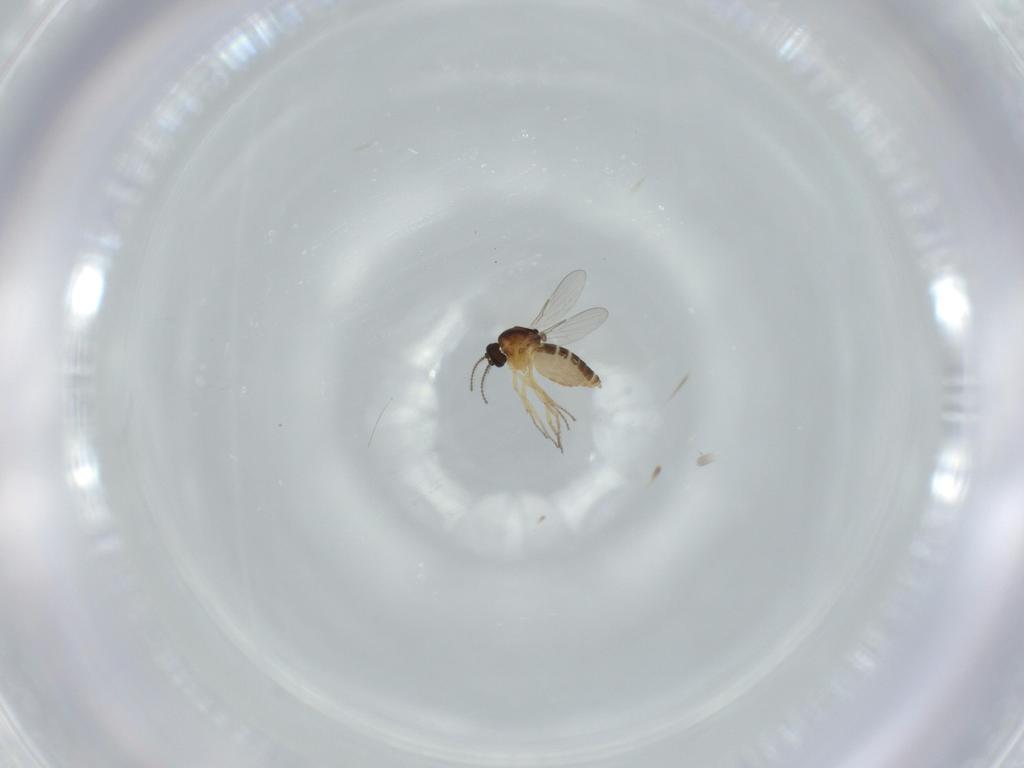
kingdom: Animalia
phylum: Arthropoda
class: Insecta
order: Diptera
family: Ceratopogonidae
